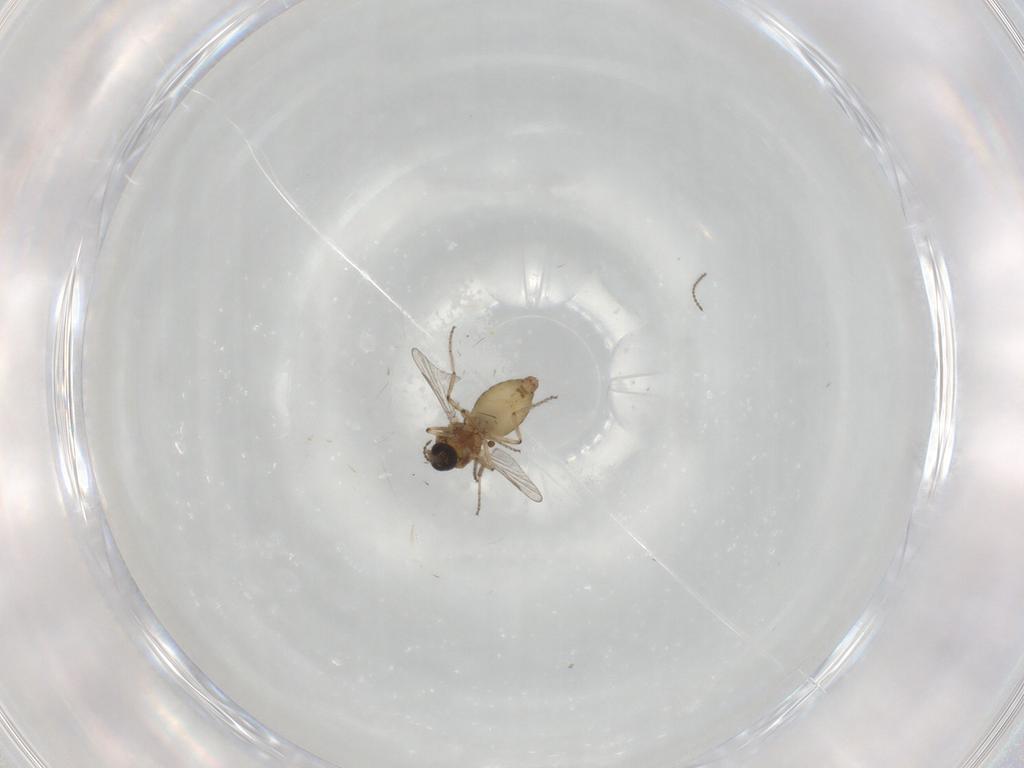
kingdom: Animalia
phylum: Arthropoda
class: Insecta
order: Diptera
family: Ceratopogonidae
